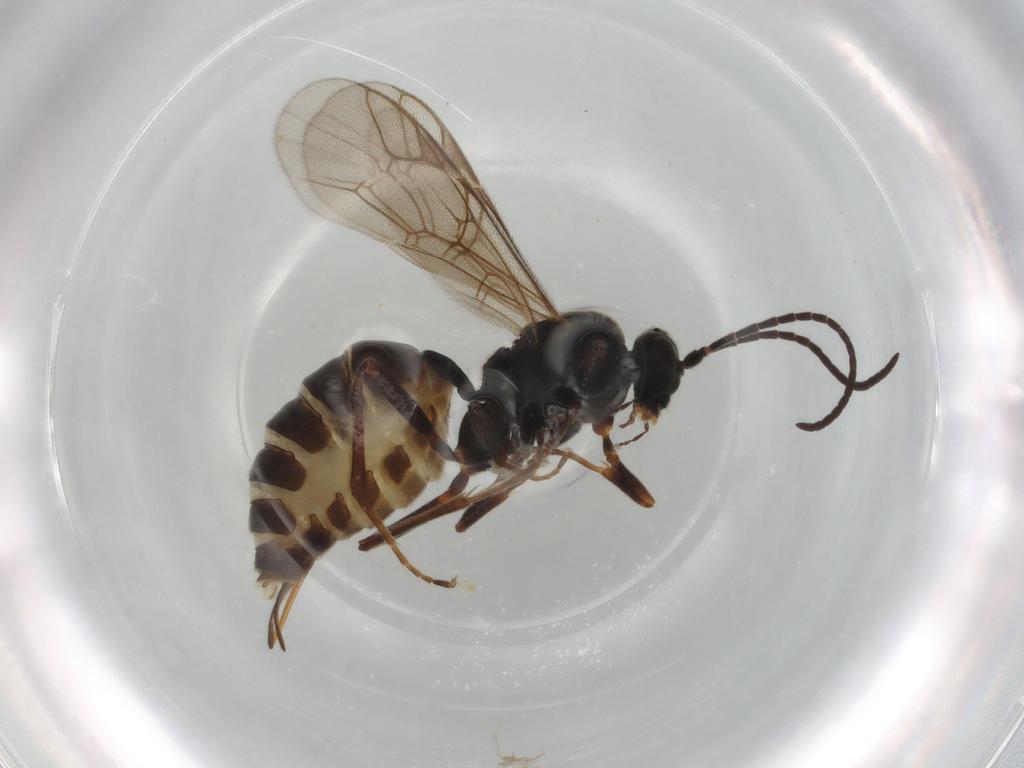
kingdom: Animalia
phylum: Arthropoda
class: Insecta
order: Hymenoptera
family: Ichneumonidae
